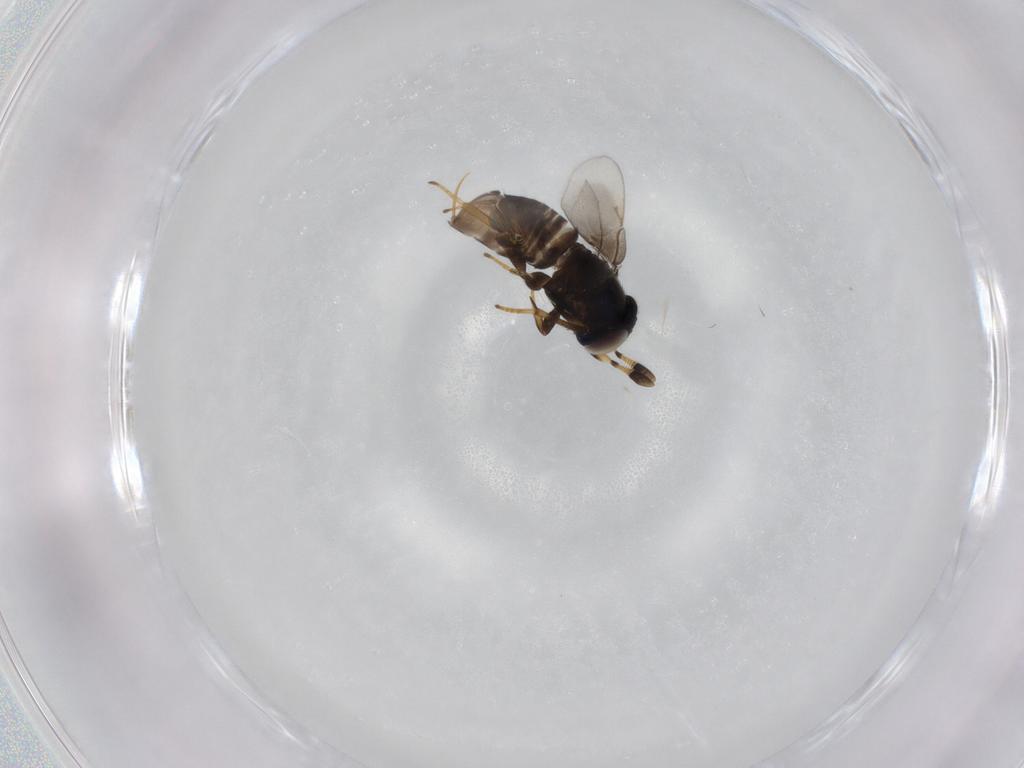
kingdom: Animalia
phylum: Arthropoda
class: Insecta
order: Hymenoptera
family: Encyrtidae
